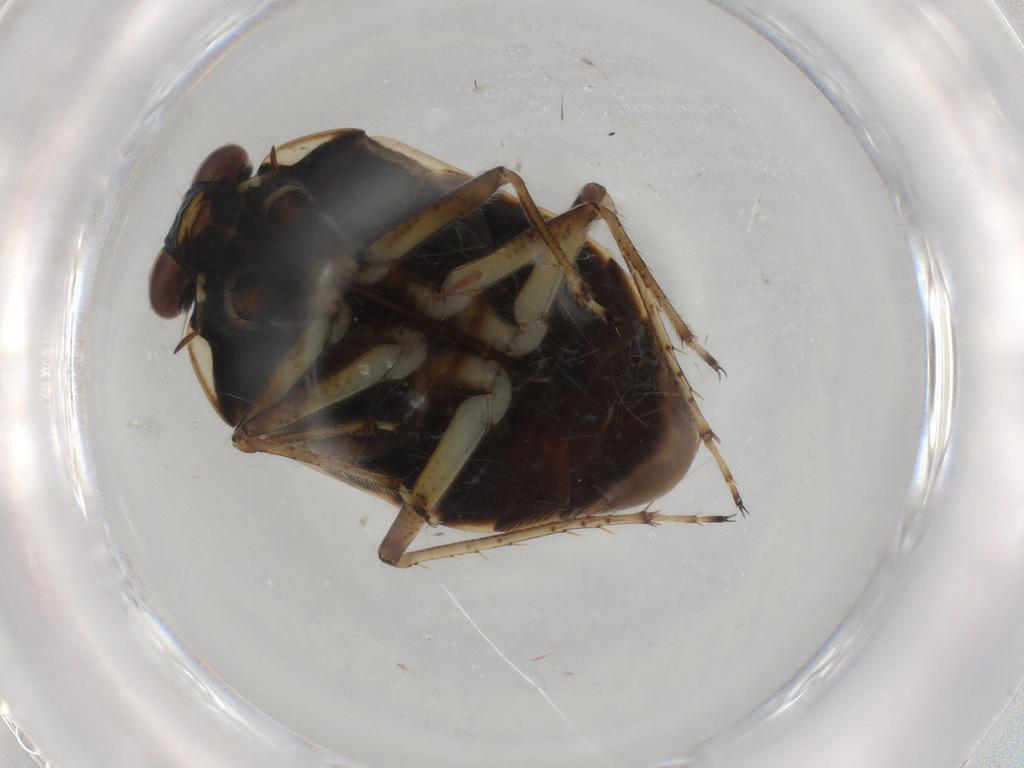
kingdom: Animalia
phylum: Arthropoda
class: Insecta
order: Hemiptera
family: Ochteridae
